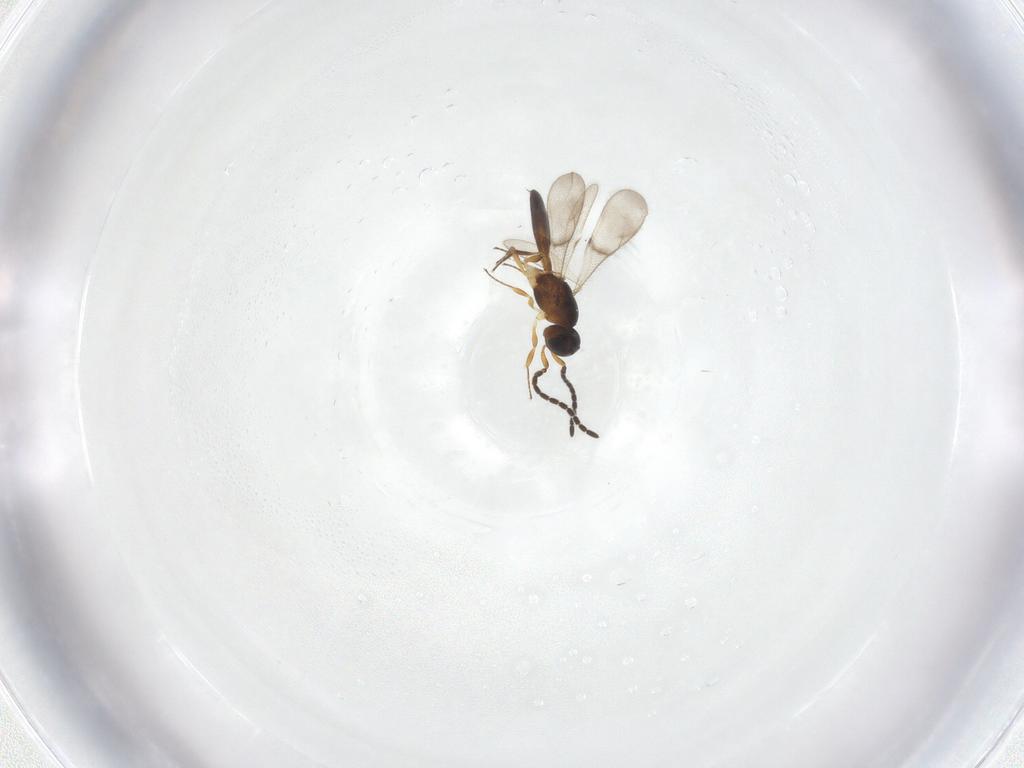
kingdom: Animalia
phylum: Arthropoda
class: Insecta
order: Hymenoptera
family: Scelionidae
